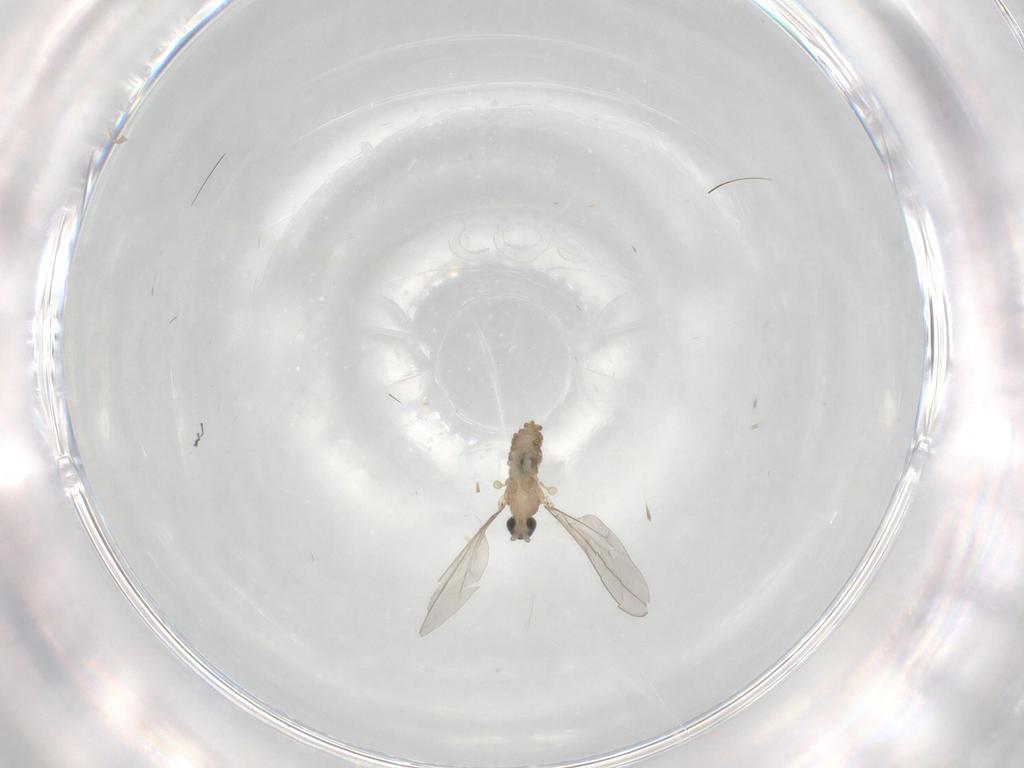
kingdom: Animalia
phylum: Arthropoda
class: Insecta
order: Diptera
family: Cecidomyiidae
